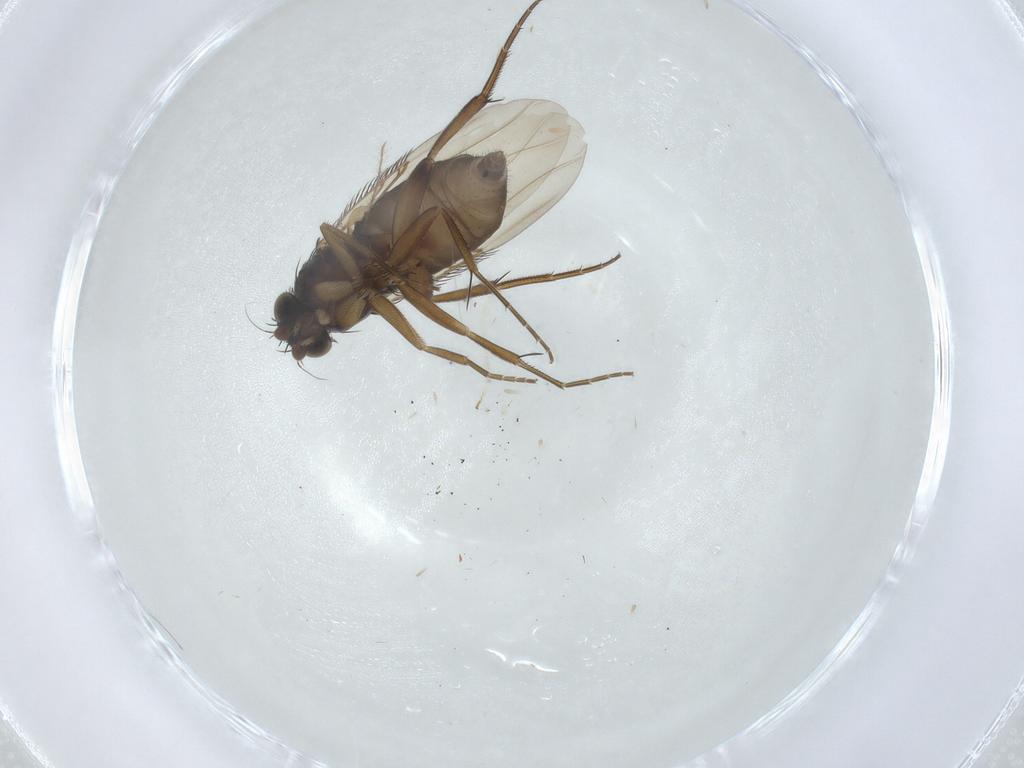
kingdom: Animalia
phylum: Arthropoda
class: Insecta
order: Diptera
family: Phoridae
